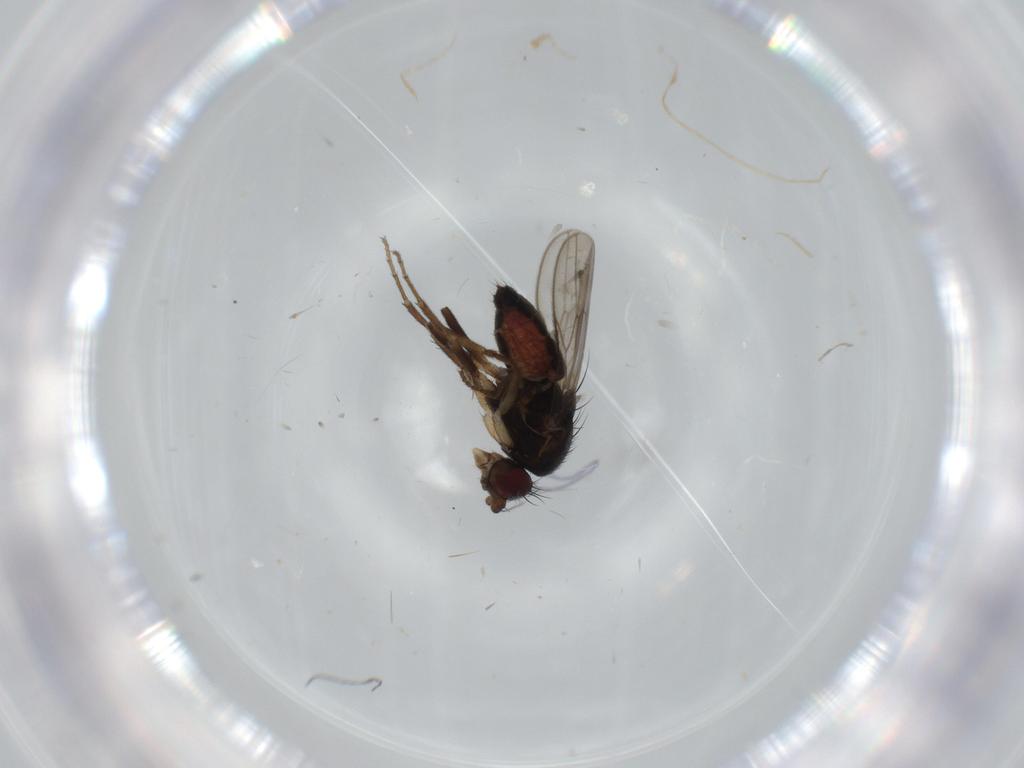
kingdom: Animalia
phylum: Arthropoda
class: Insecta
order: Diptera
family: Sphaeroceridae
